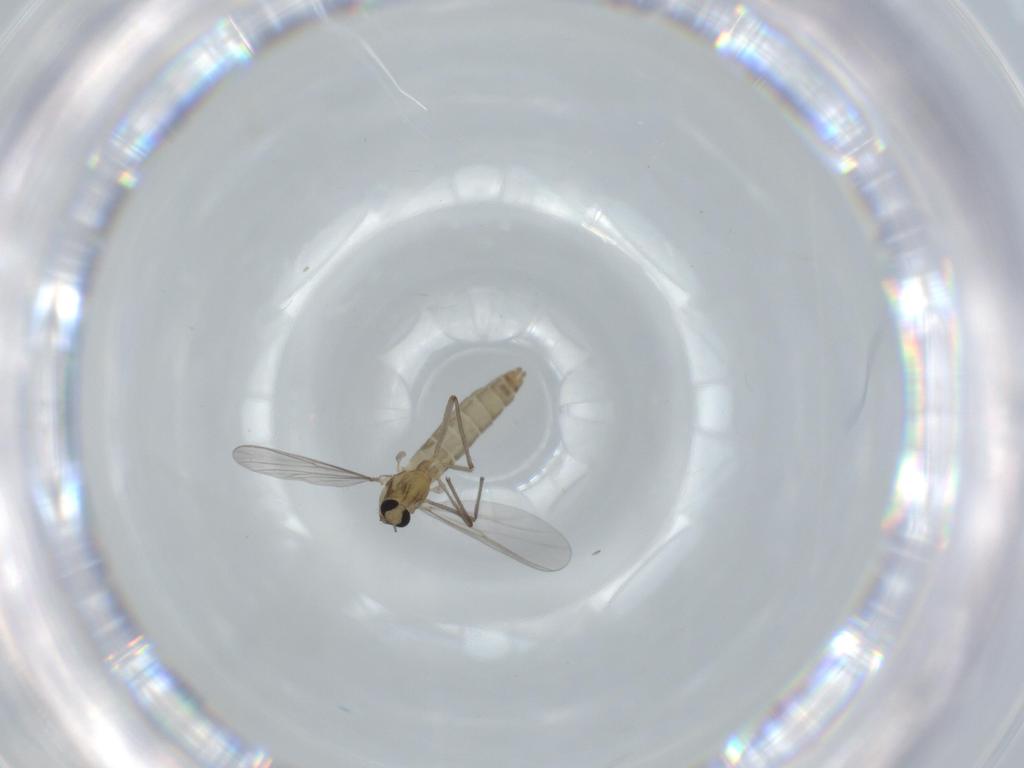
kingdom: Animalia
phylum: Arthropoda
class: Insecta
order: Diptera
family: Chironomidae
